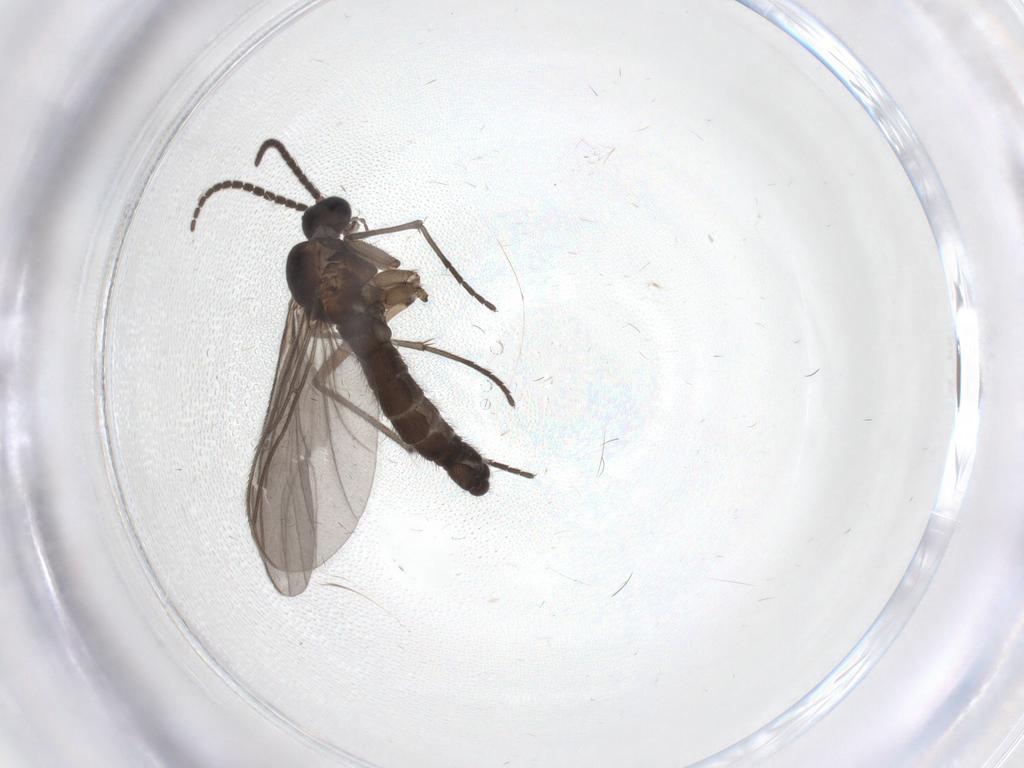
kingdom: Animalia
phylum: Arthropoda
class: Insecta
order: Diptera
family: Sciaridae
